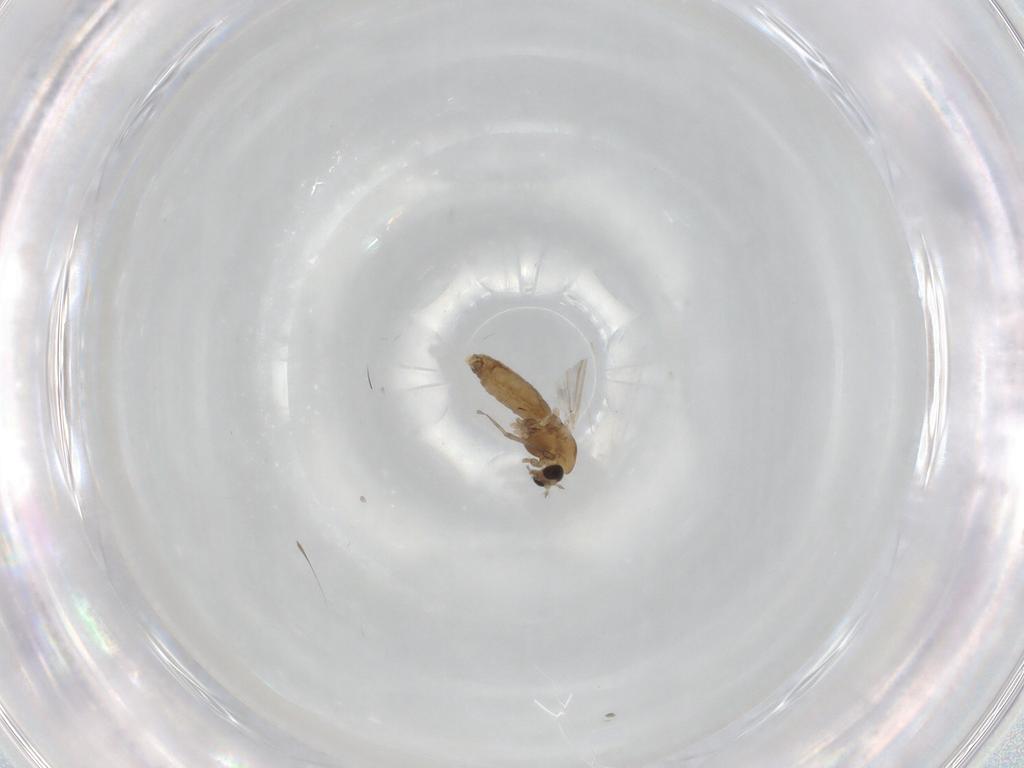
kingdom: Animalia
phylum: Arthropoda
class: Insecta
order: Diptera
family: Chironomidae
